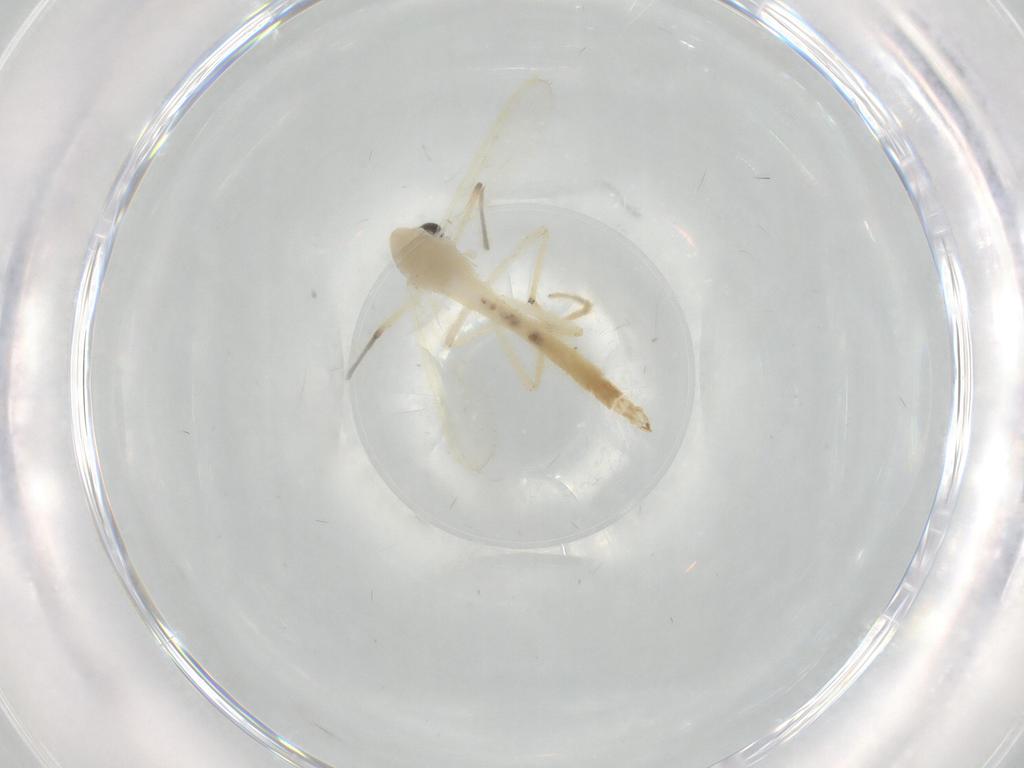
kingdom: Animalia
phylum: Arthropoda
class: Insecta
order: Diptera
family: Chironomidae
